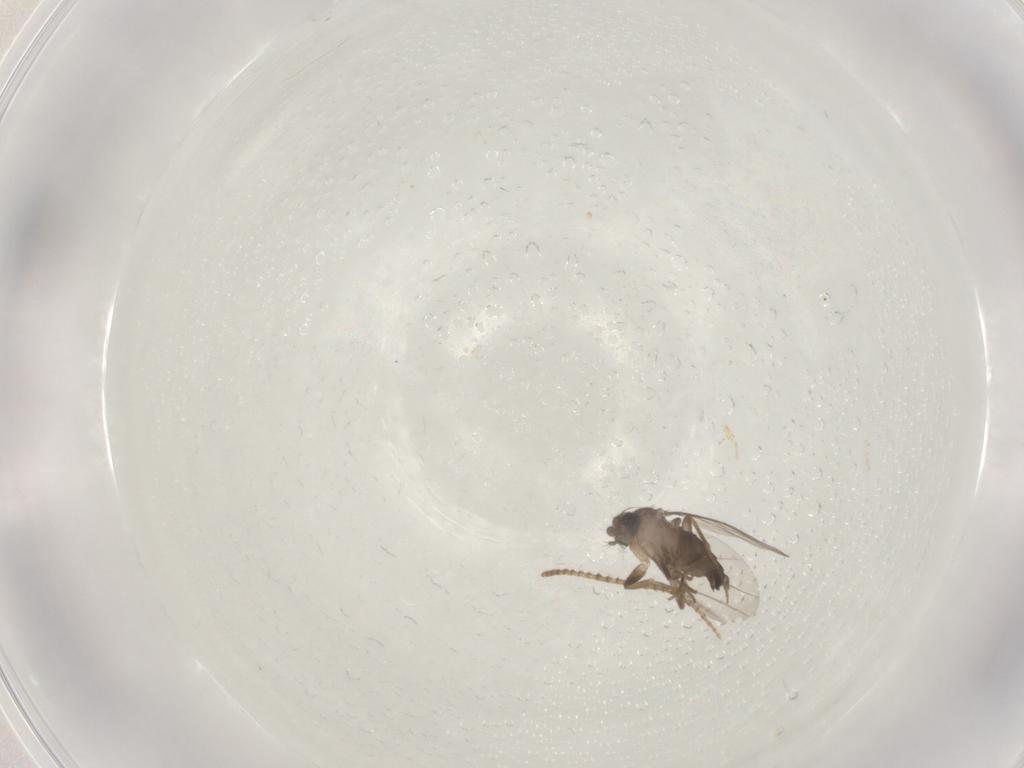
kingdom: Animalia
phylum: Arthropoda
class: Insecta
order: Diptera
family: Phoridae
